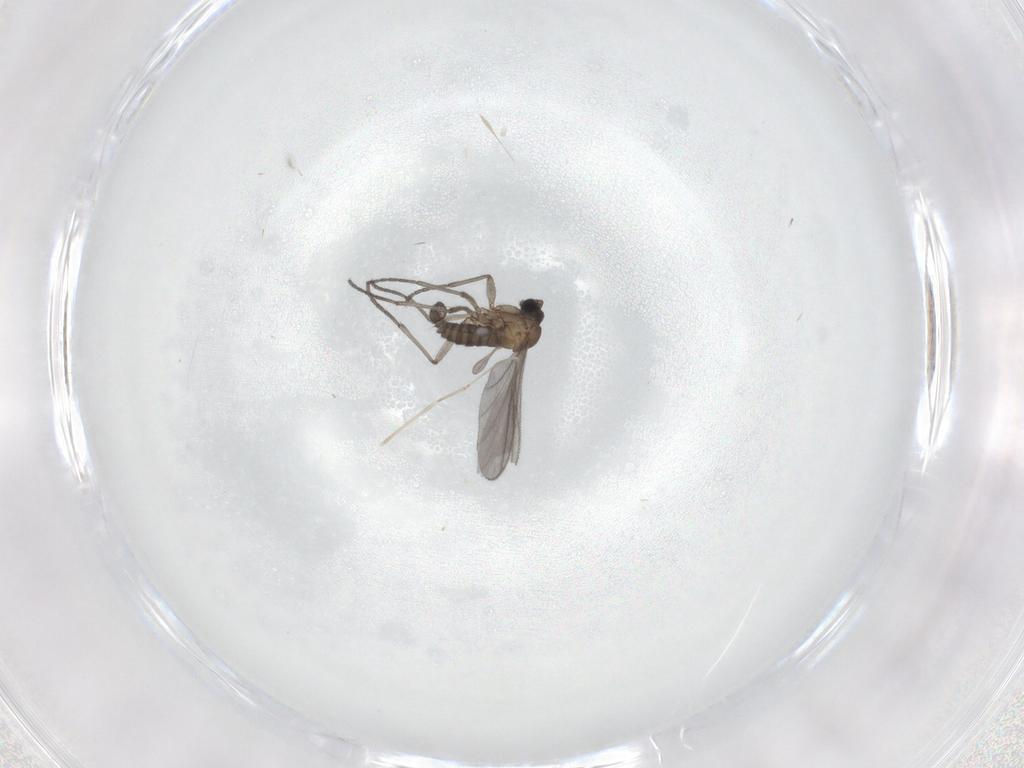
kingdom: Animalia
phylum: Arthropoda
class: Insecta
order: Diptera
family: Sciaridae
